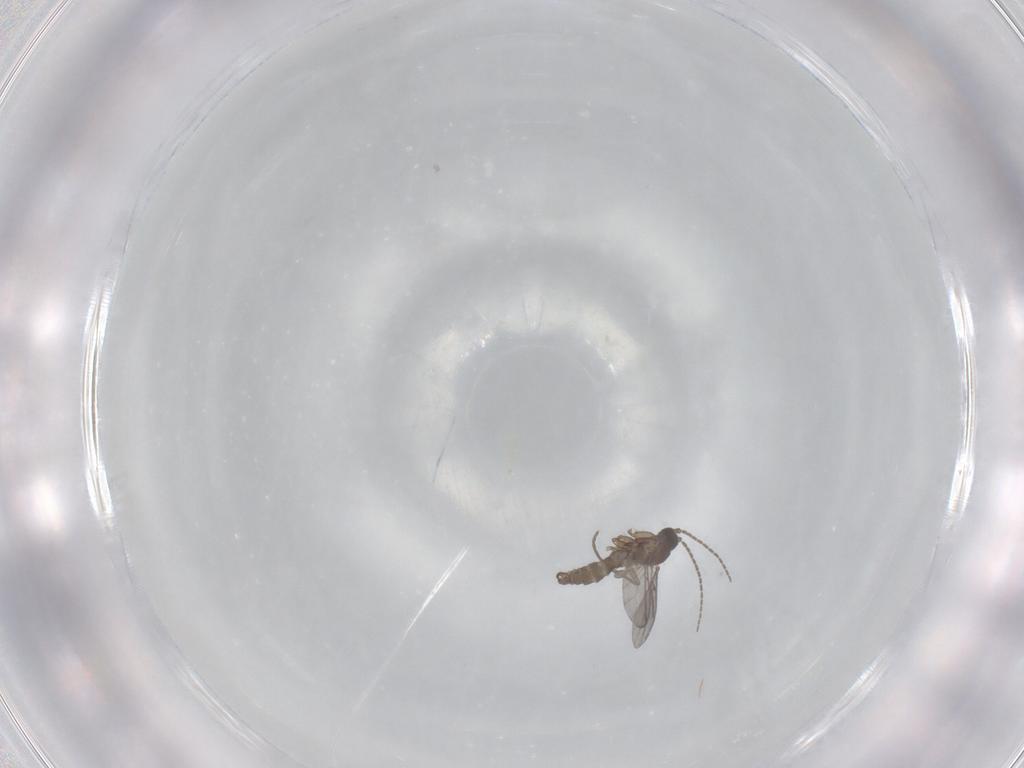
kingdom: Animalia
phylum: Arthropoda
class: Insecta
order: Diptera
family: Sciaridae
